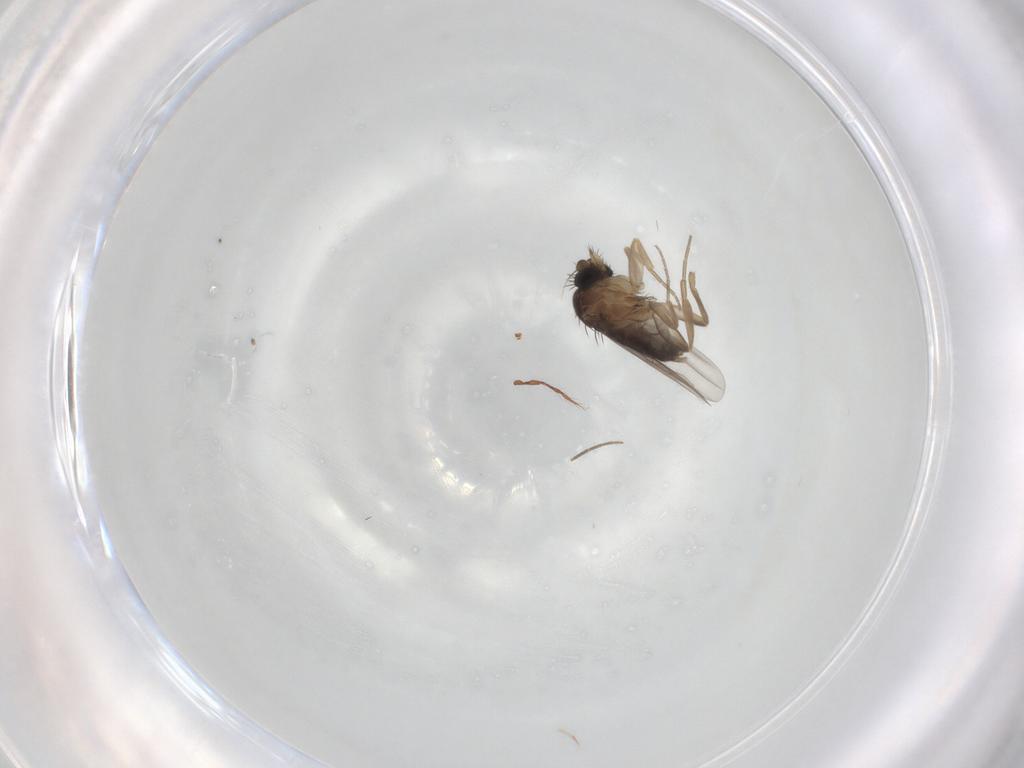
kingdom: Animalia
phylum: Arthropoda
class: Insecta
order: Diptera
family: Phoridae
